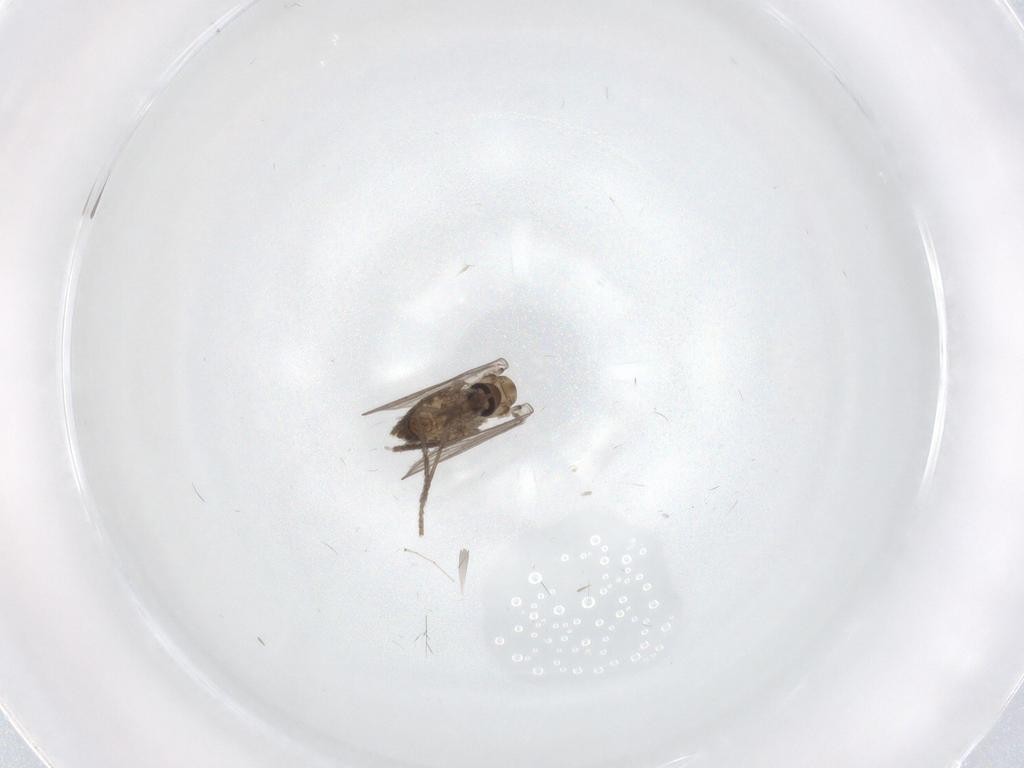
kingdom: Animalia
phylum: Arthropoda
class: Insecta
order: Diptera
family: Psychodidae
